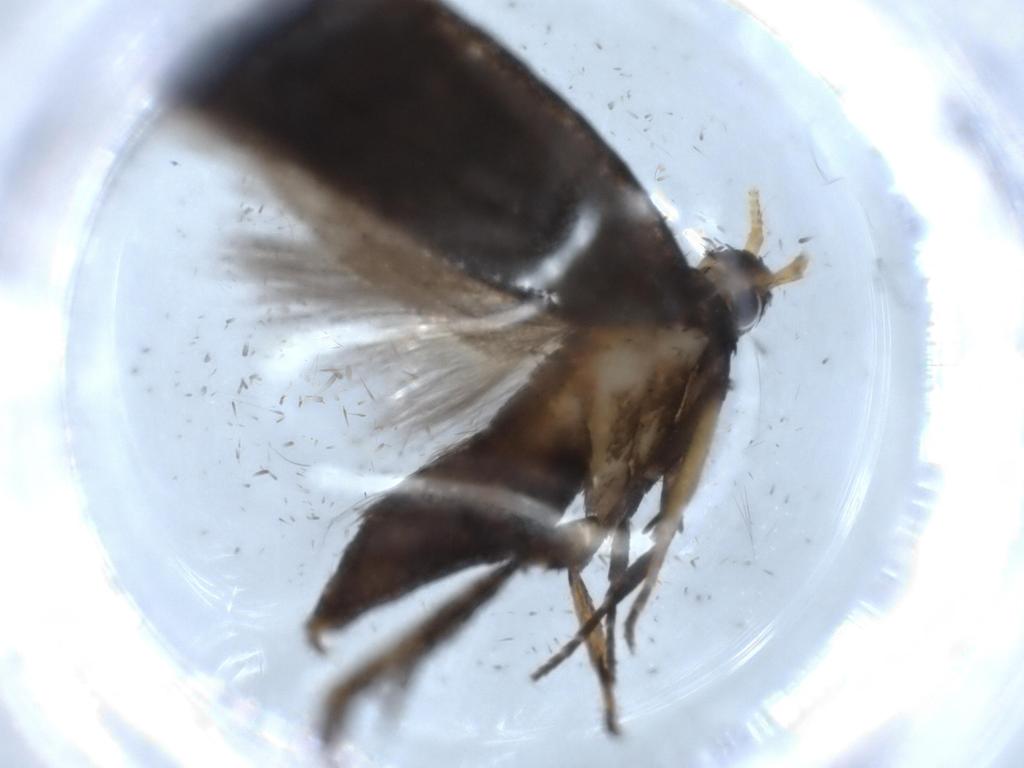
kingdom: Animalia
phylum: Arthropoda
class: Insecta
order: Lepidoptera
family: Lecithoceridae
